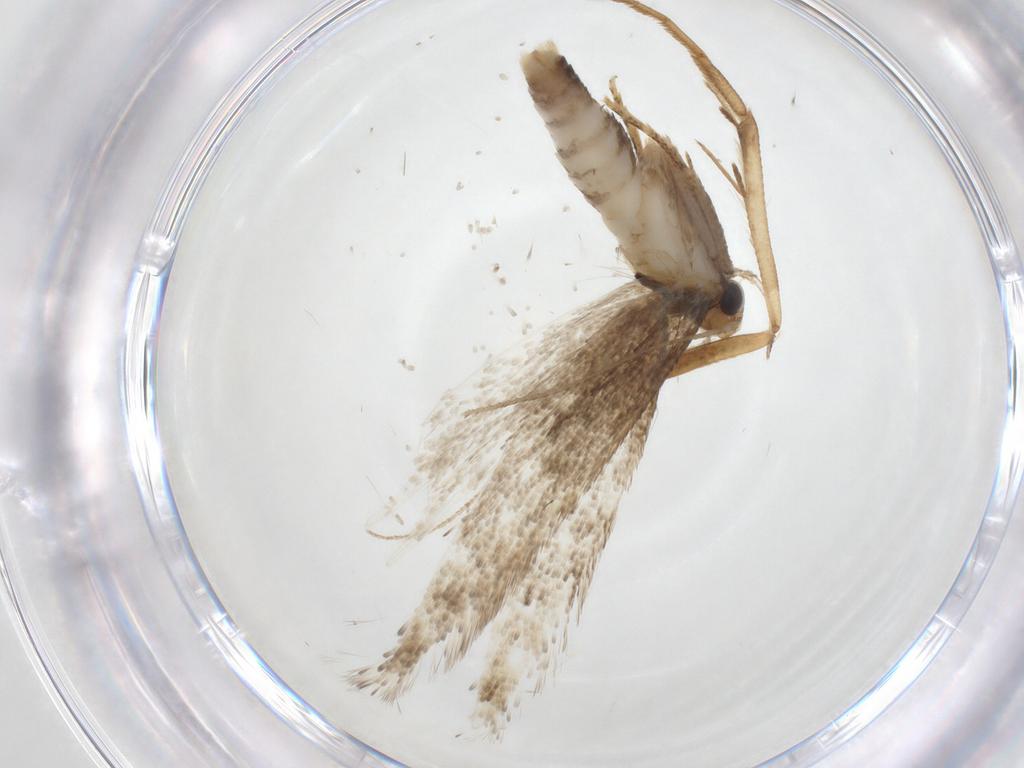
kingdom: Animalia
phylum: Arthropoda
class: Insecta
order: Lepidoptera
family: Gelechiidae
